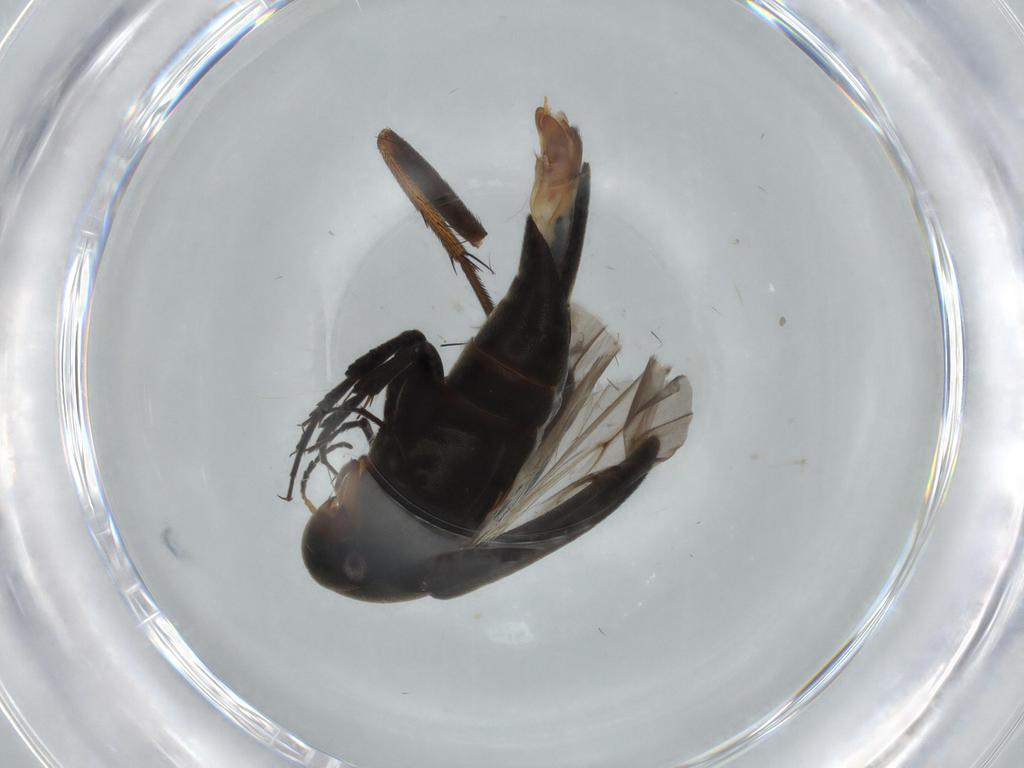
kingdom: Animalia
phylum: Arthropoda
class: Insecta
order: Coleoptera
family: Mordellidae
